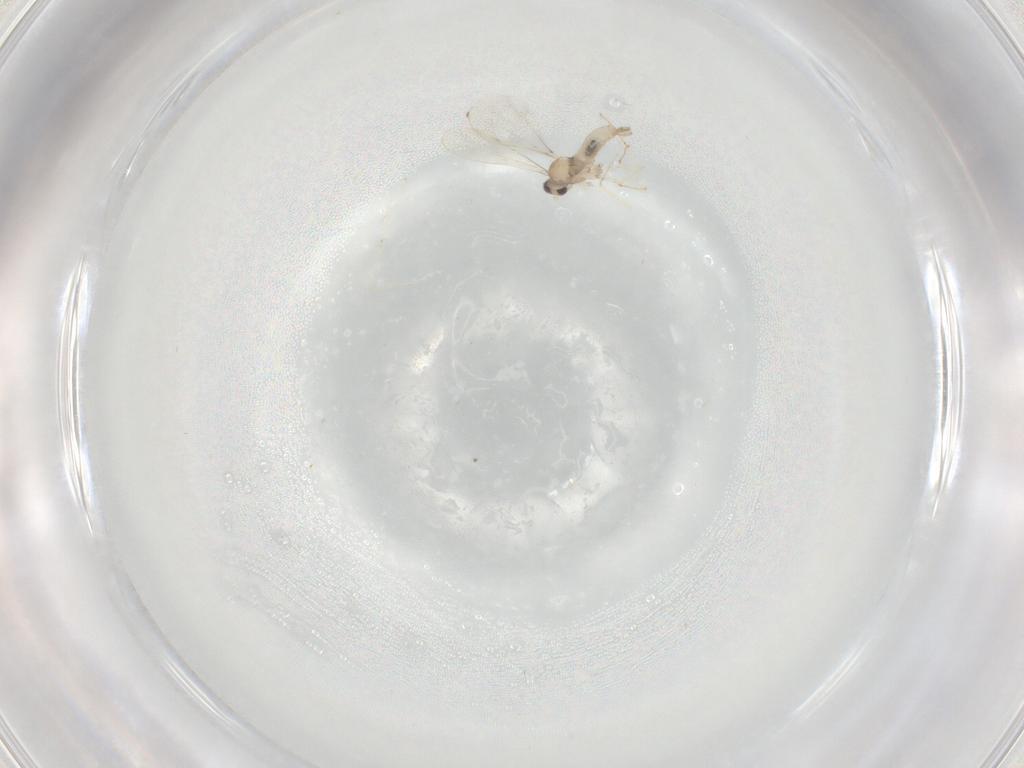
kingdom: Animalia
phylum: Arthropoda
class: Insecta
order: Diptera
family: Cecidomyiidae
